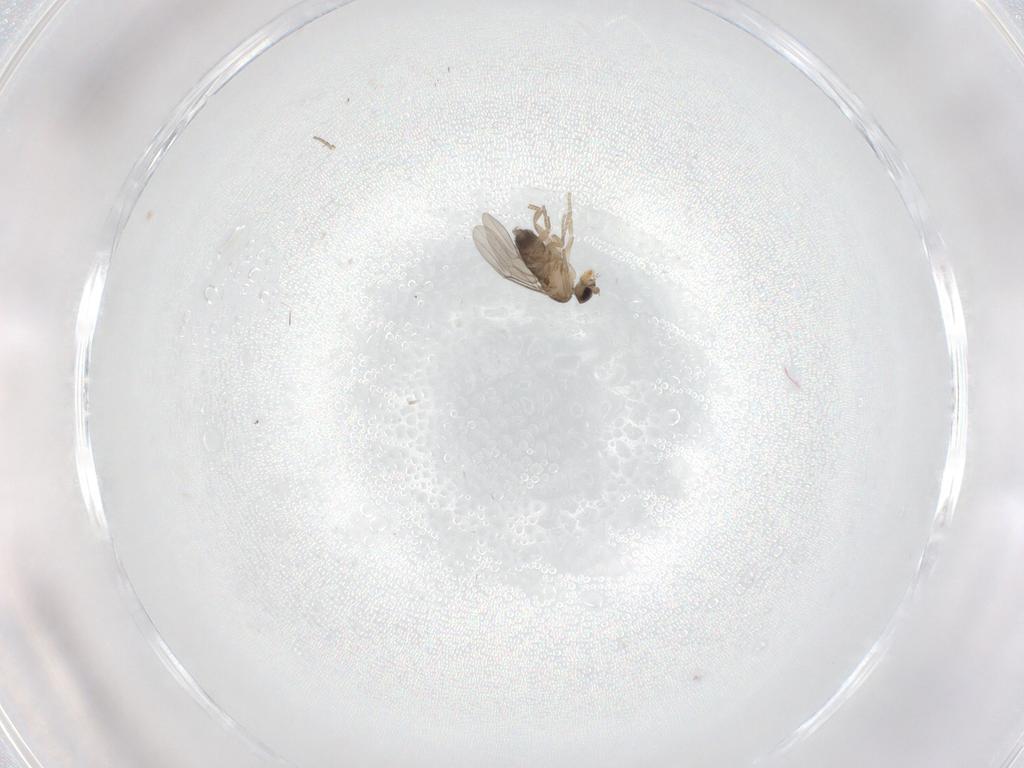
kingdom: Animalia
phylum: Arthropoda
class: Insecta
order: Diptera
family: Phoridae
